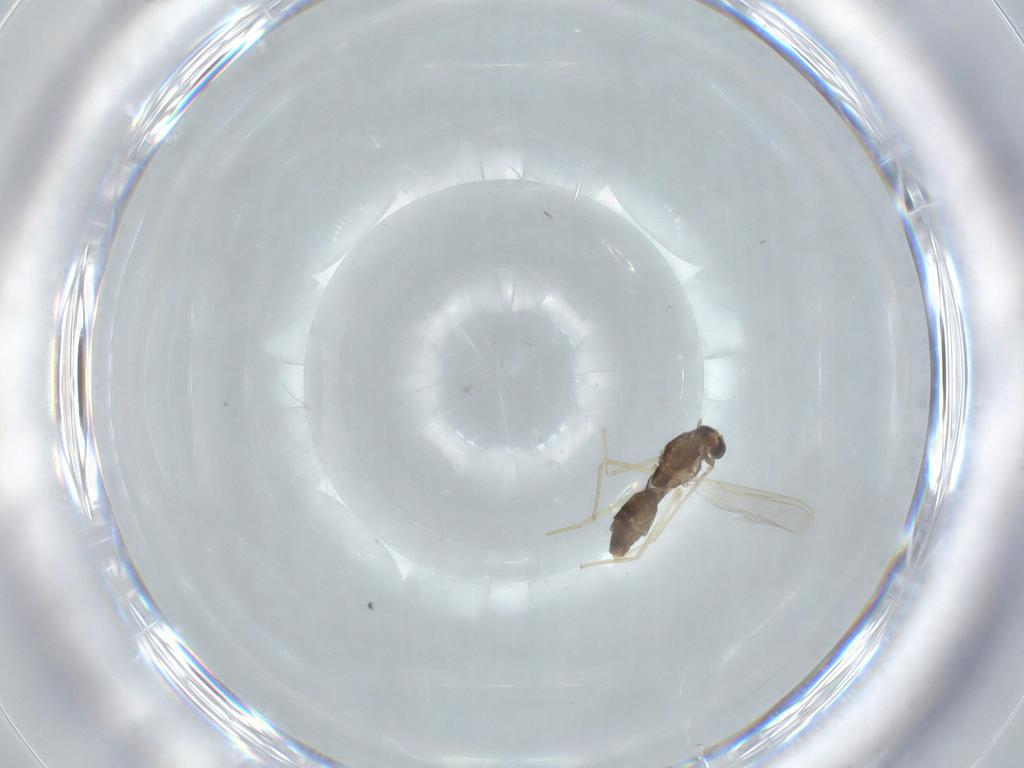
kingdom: Animalia
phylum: Arthropoda
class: Insecta
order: Diptera
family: Chironomidae
